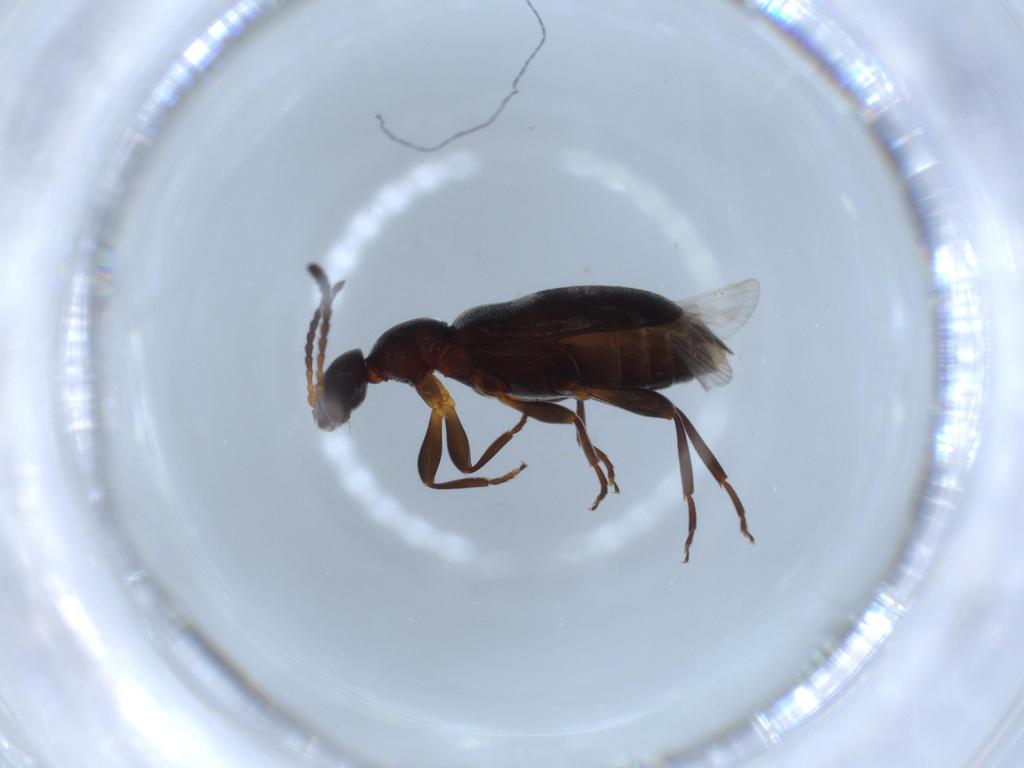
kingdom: Animalia
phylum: Arthropoda
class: Insecta
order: Coleoptera
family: Anthicidae
